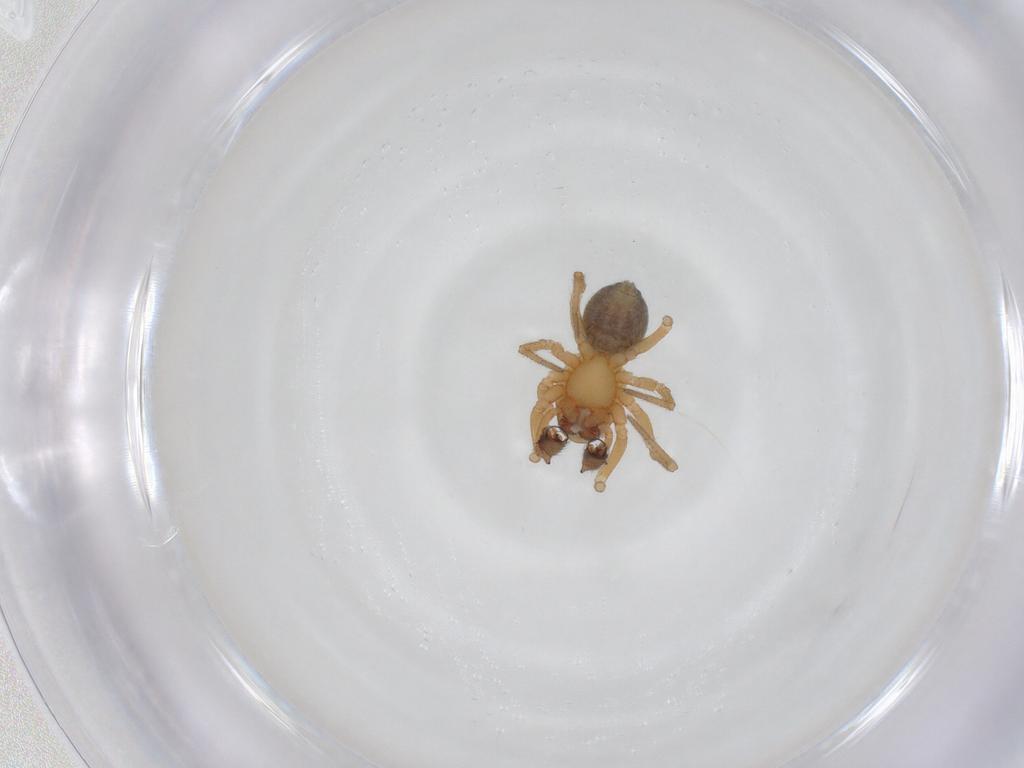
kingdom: Animalia
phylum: Arthropoda
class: Arachnida
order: Araneae
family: Linyphiidae
